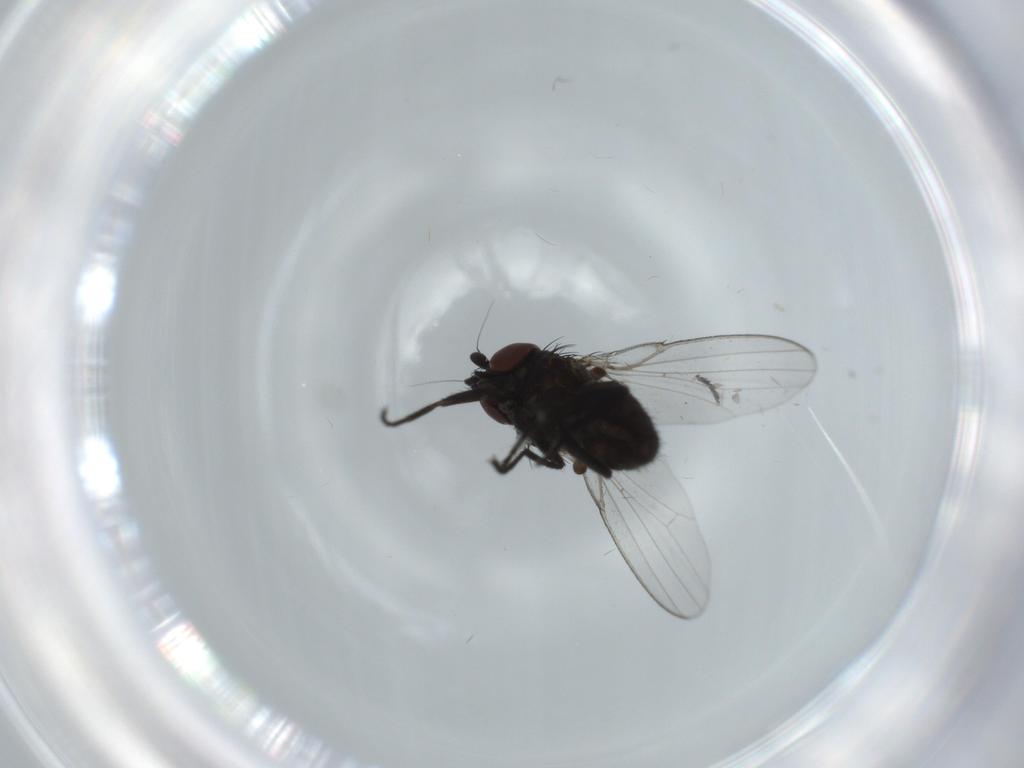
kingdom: Animalia
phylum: Arthropoda
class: Insecta
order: Diptera
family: Milichiidae
